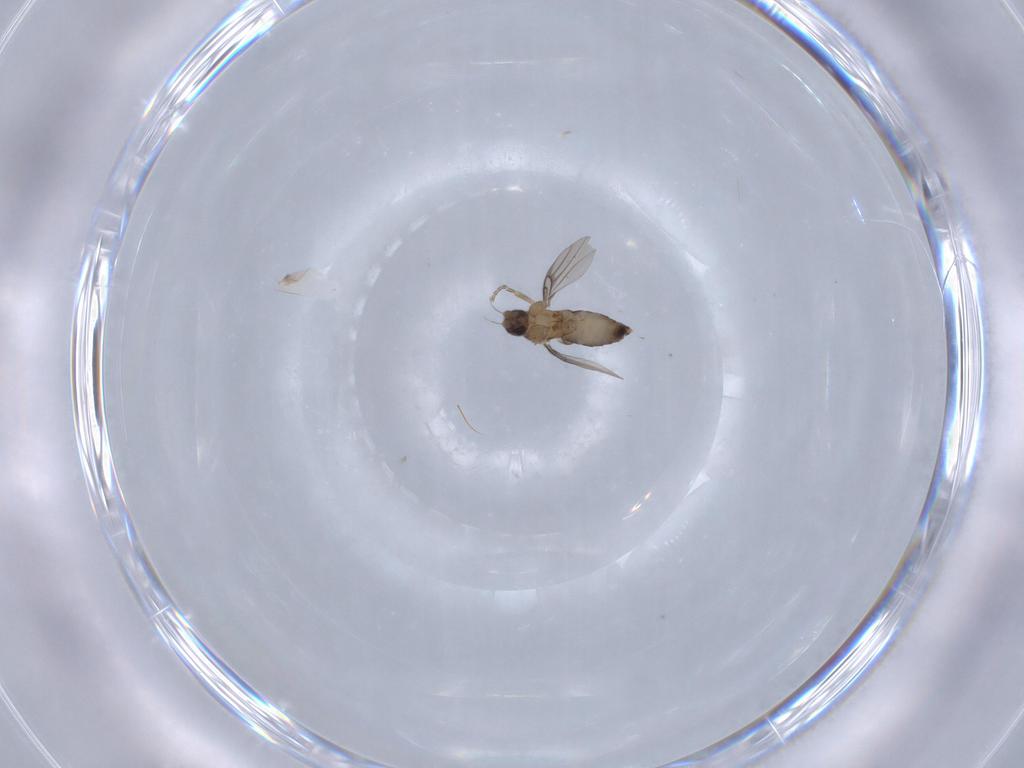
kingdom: Animalia
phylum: Arthropoda
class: Insecta
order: Diptera
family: Phoridae
